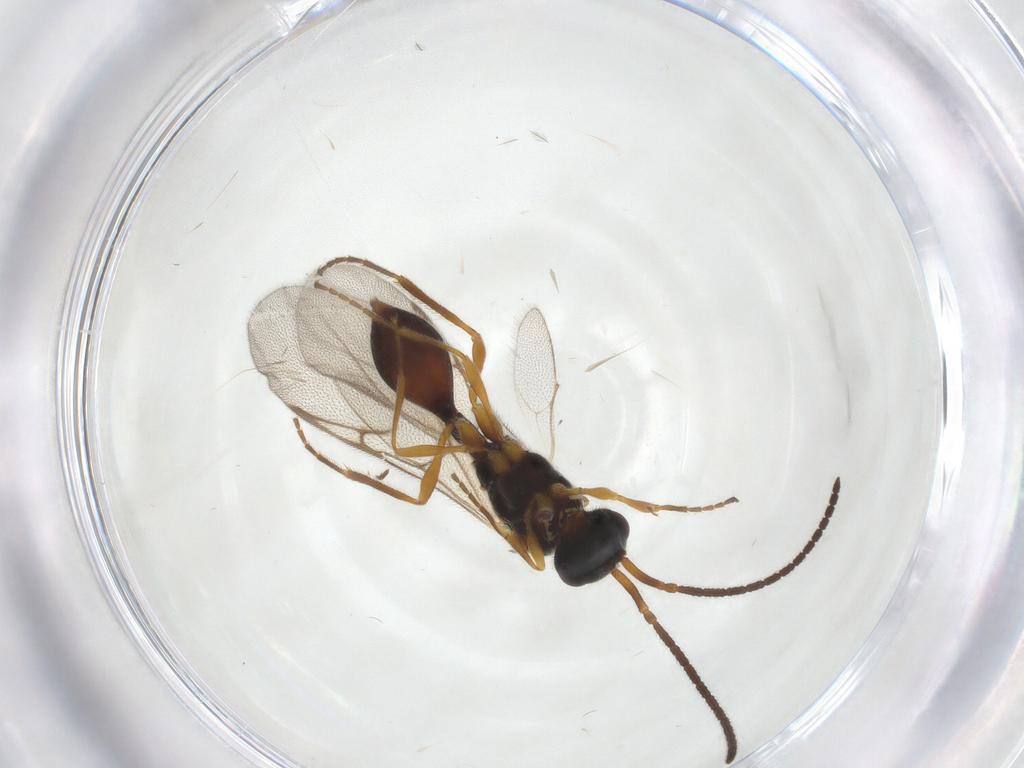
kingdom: Animalia
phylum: Arthropoda
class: Insecta
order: Hymenoptera
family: Diapriidae
